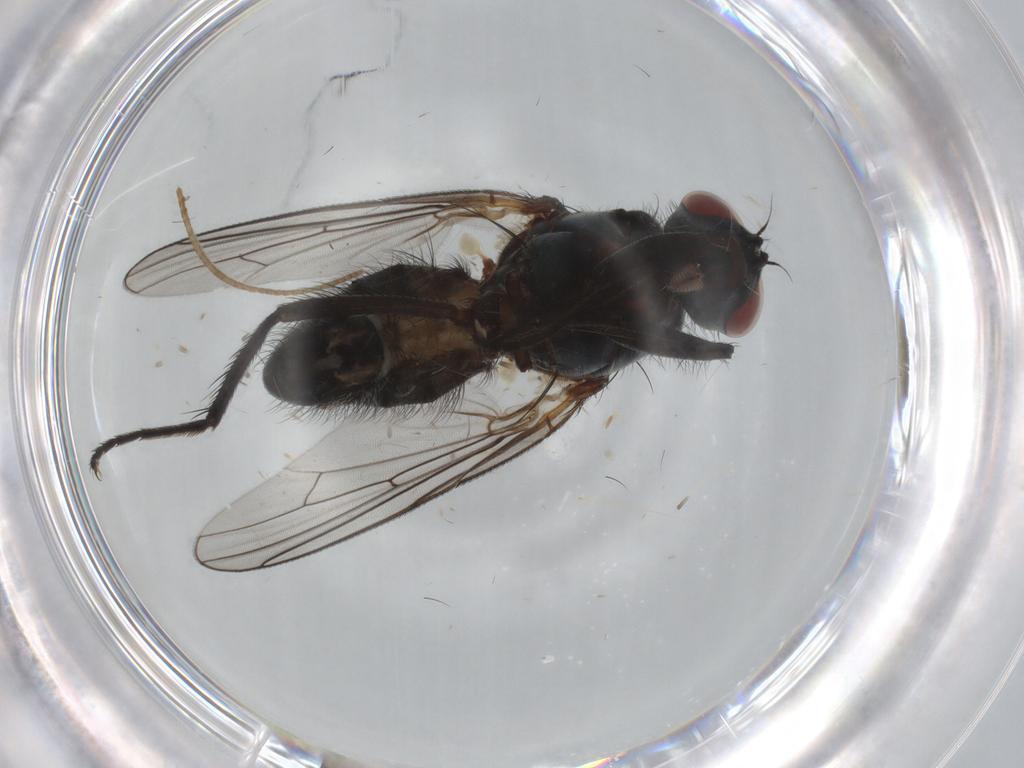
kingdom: Animalia
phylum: Arthropoda
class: Insecta
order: Diptera
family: Anthomyiidae
